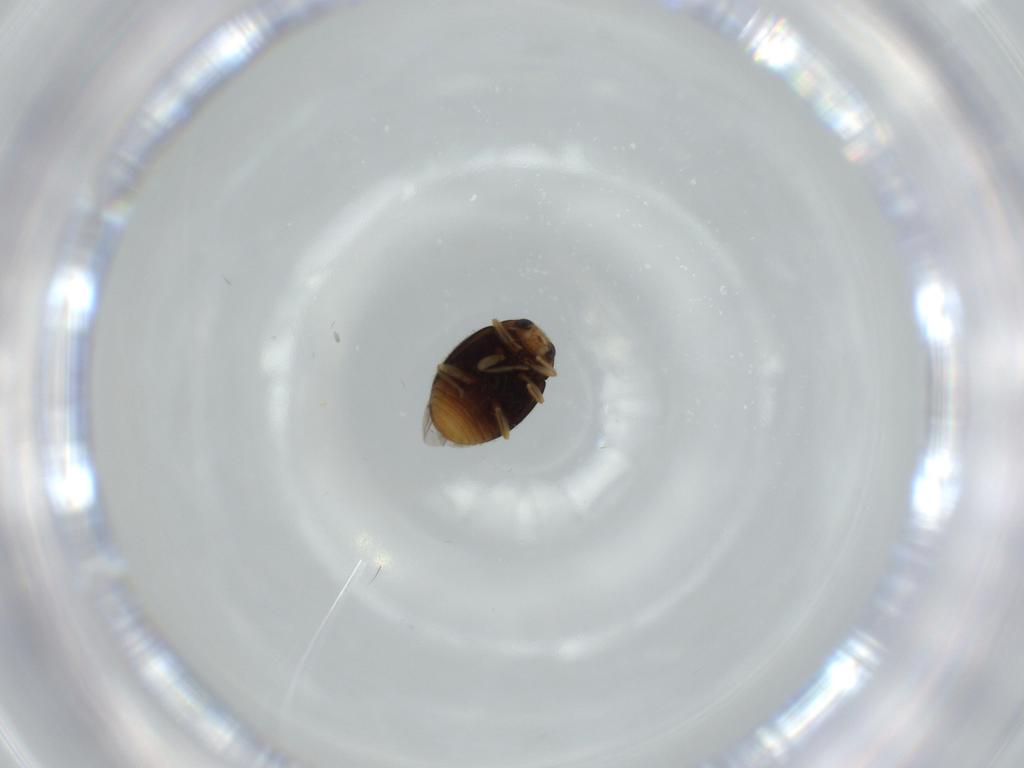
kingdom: Animalia
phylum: Arthropoda
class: Insecta
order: Coleoptera
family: Coccinellidae
